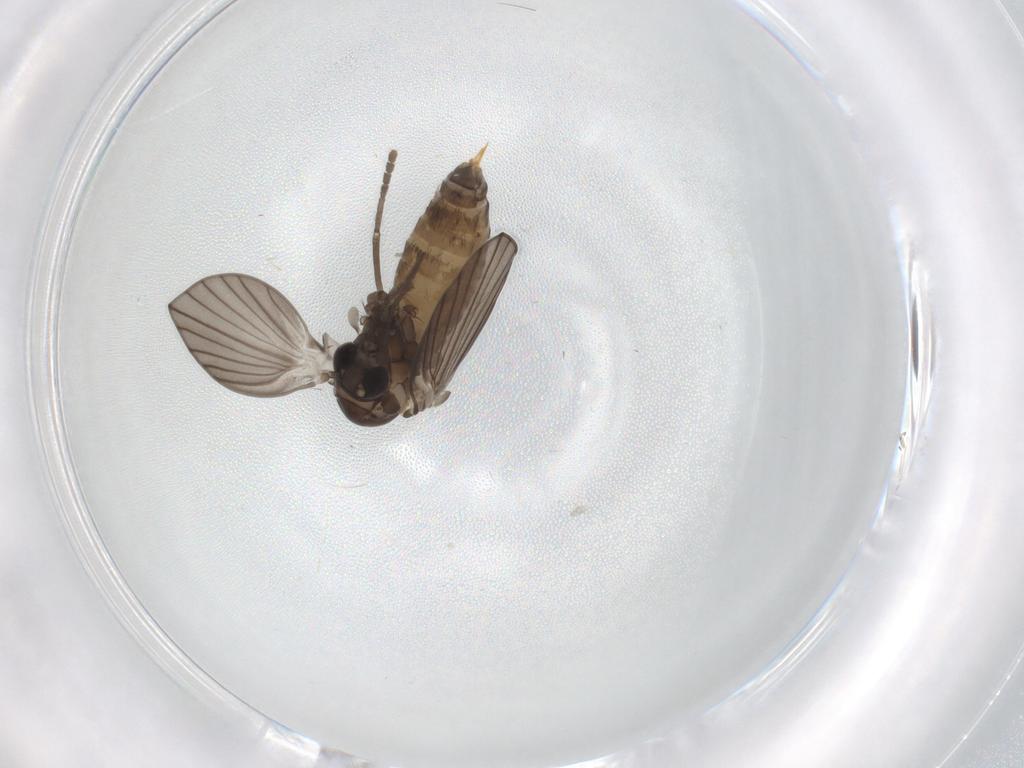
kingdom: Animalia
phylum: Arthropoda
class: Insecta
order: Diptera
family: Psychodidae
